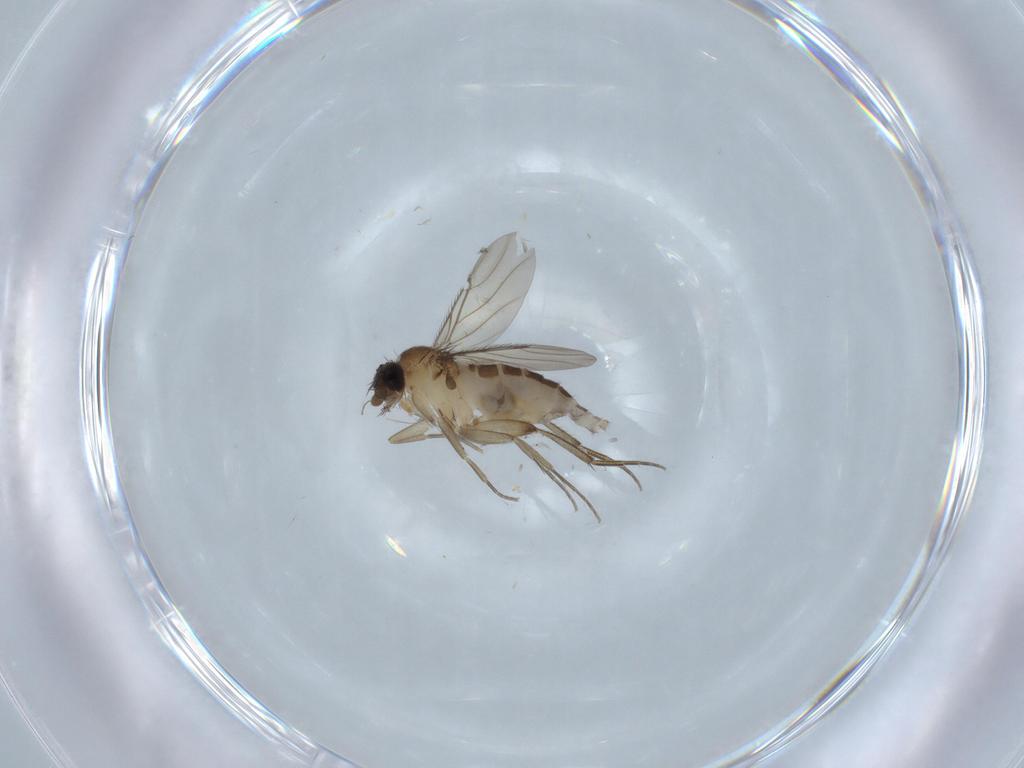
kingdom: Animalia
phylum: Arthropoda
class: Insecta
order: Diptera
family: Phoridae
